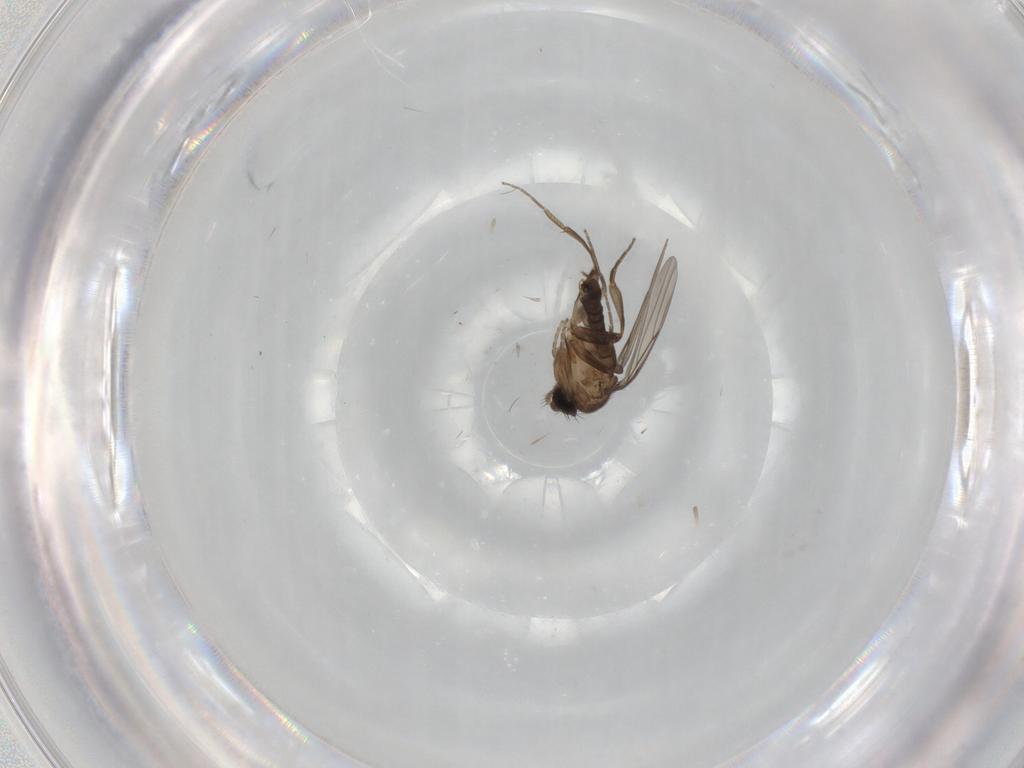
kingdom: Animalia
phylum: Arthropoda
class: Insecta
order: Diptera
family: Phoridae
